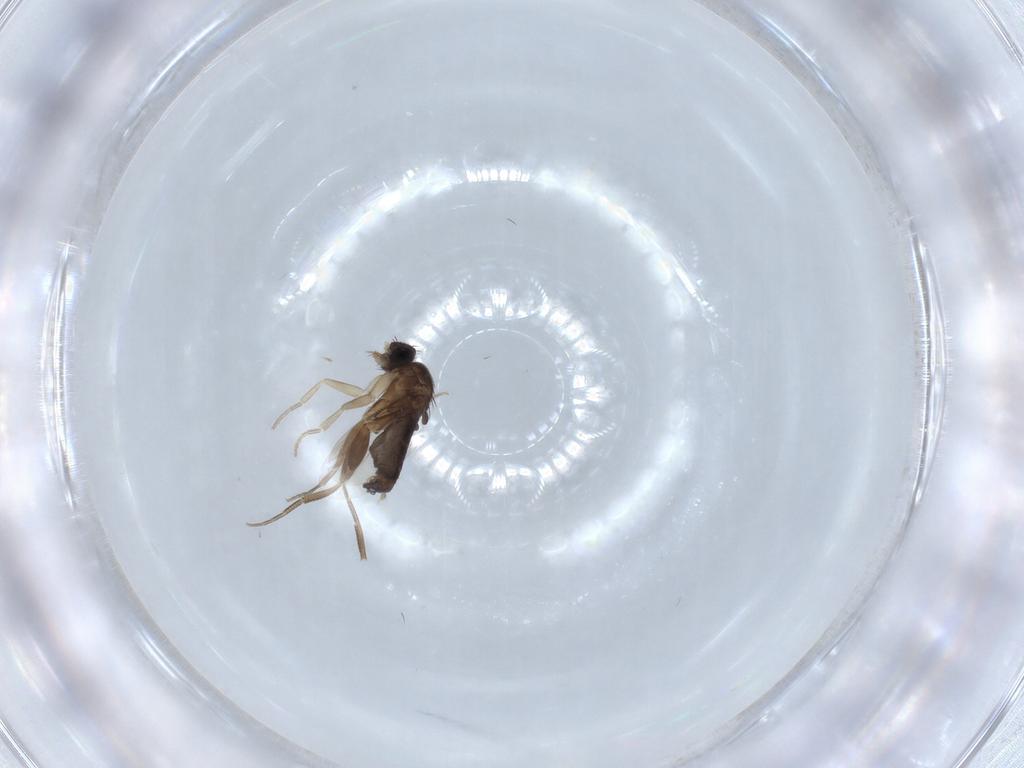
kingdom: Animalia
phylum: Arthropoda
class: Insecta
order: Diptera
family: Phoridae
